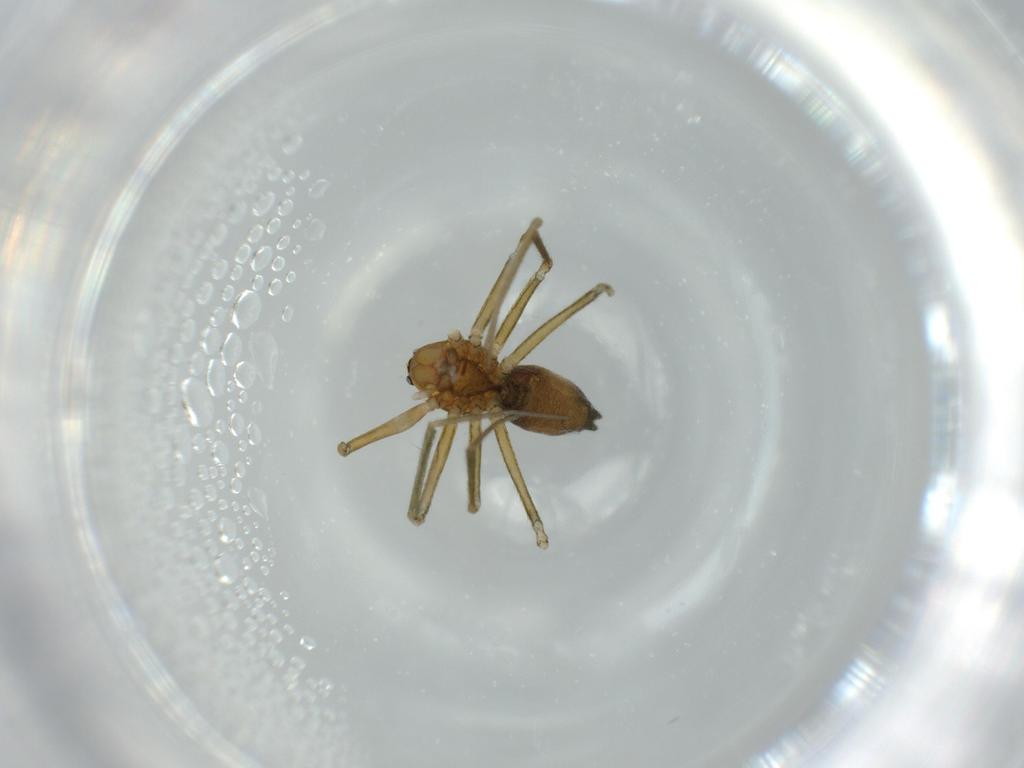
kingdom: Animalia
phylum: Arthropoda
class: Arachnida
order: Araneae
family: Linyphiidae
